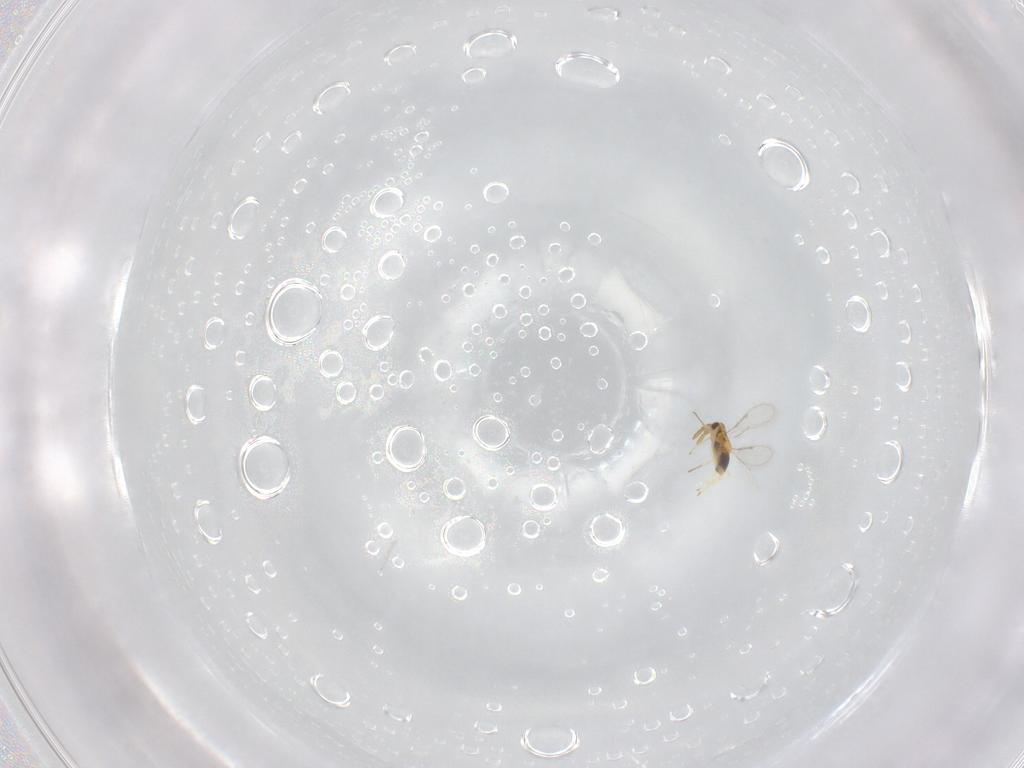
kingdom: Animalia
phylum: Arthropoda
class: Insecta
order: Hymenoptera
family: Aphelinidae
